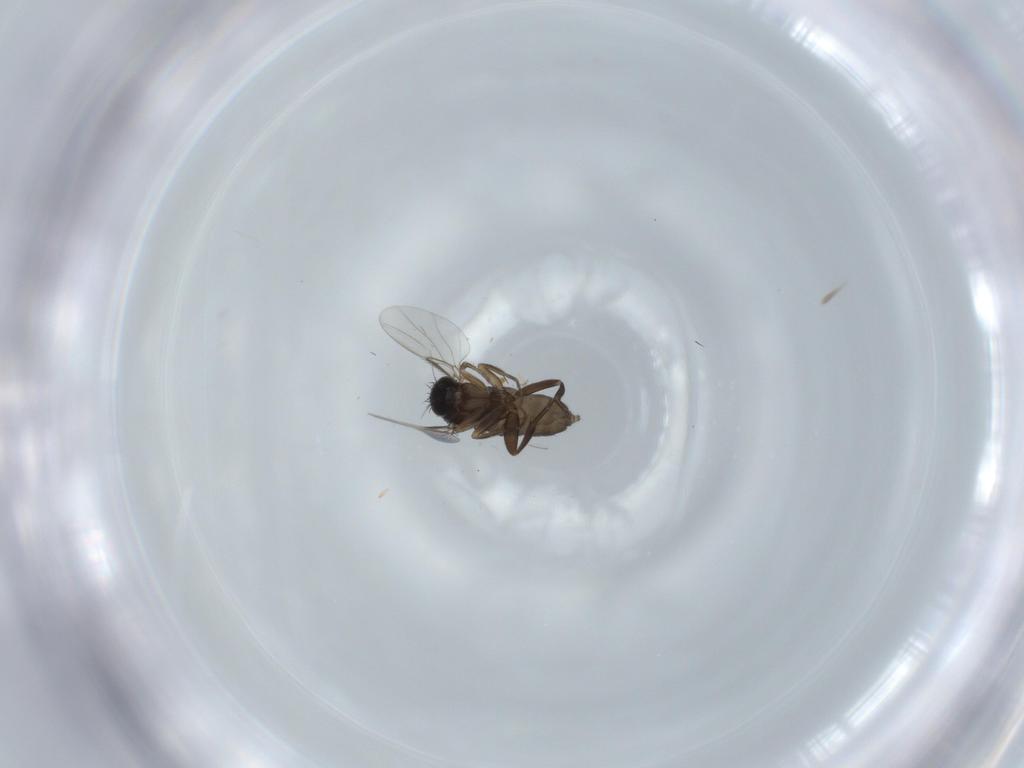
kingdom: Animalia
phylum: Arthropoda
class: Insecta
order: Diptera
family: Phoridae
